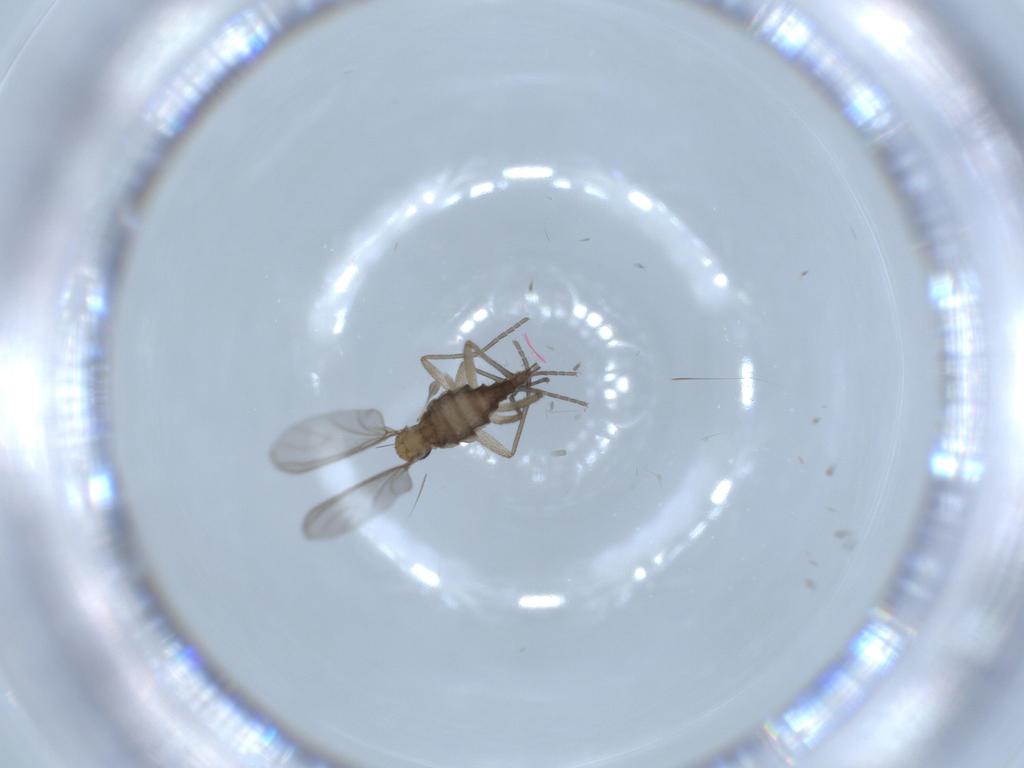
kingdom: Animalia
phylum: Arthropoda
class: Insecta
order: Diptera
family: Sciaridae
